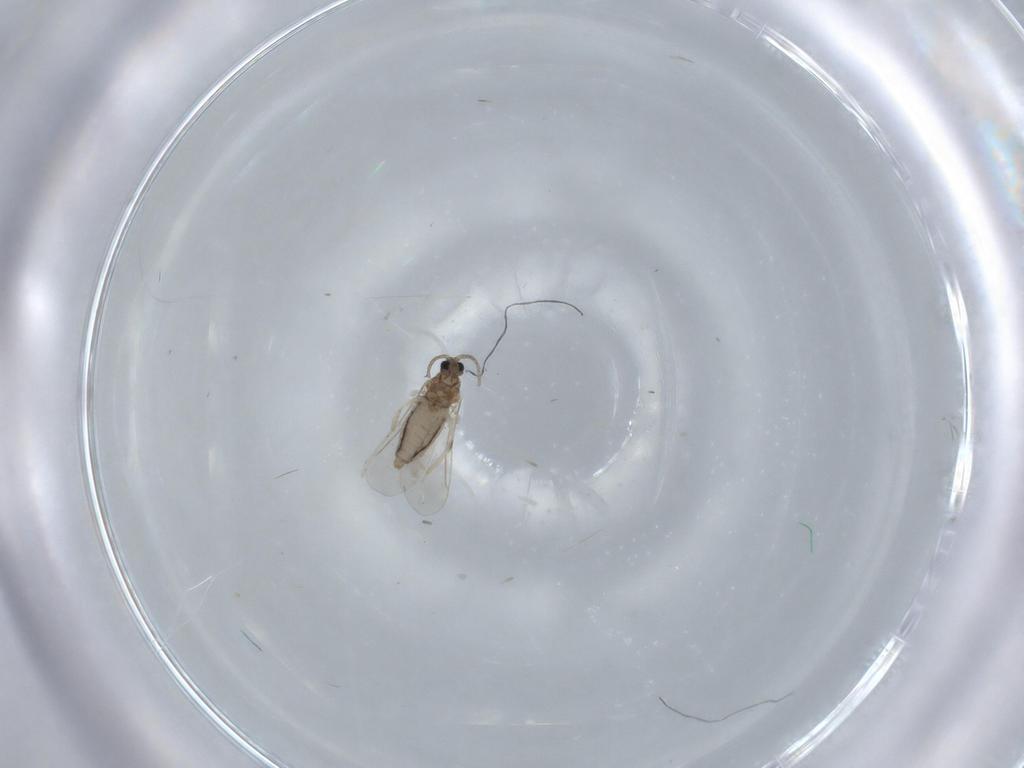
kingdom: Animalia
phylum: Arthropoda
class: Insecta
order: Diptera
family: Cecidomyiidae
